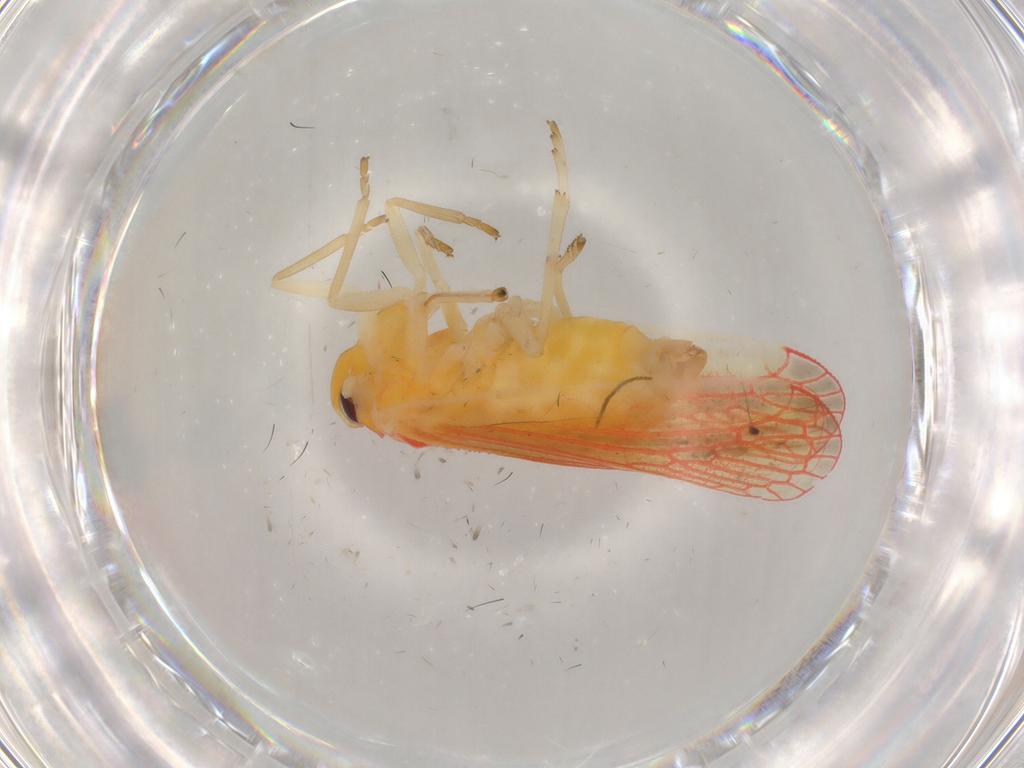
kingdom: Animalia
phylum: Arthropoda
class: Insecta
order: Hemiptera
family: Derbidae
